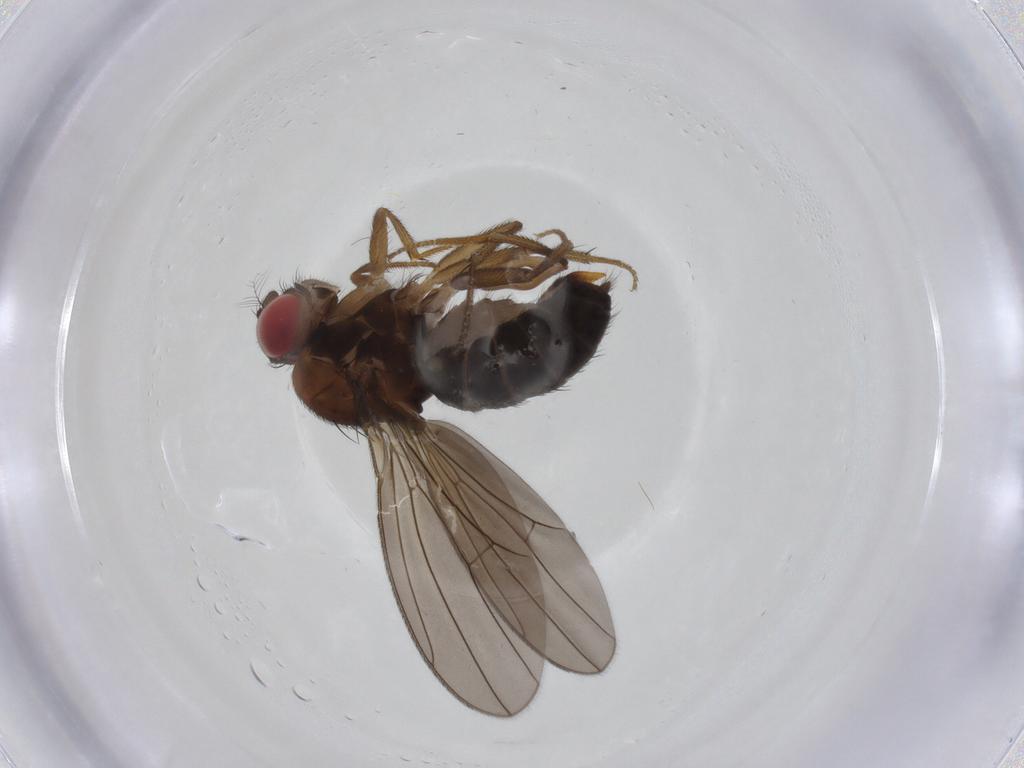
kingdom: Animalia
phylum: Arthropoda
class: Insecta
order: Diptera
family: Drosophilidae
